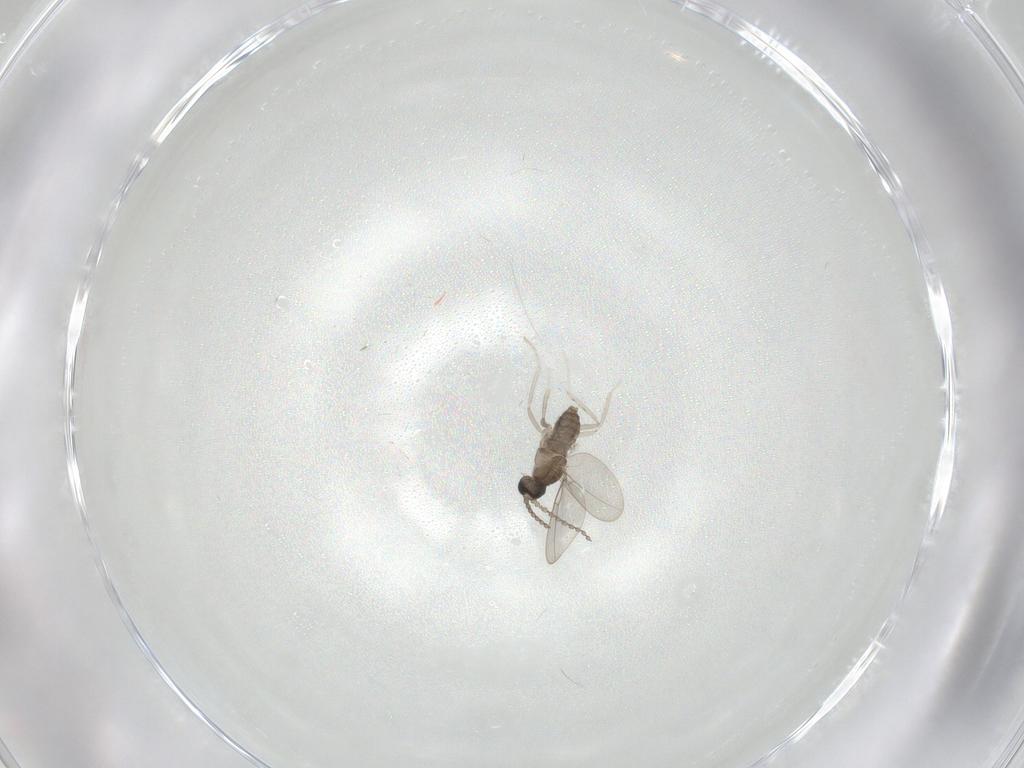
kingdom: Animalia
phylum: Arthropoda
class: Insecta
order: Diptera
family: Cecidomyiidae
